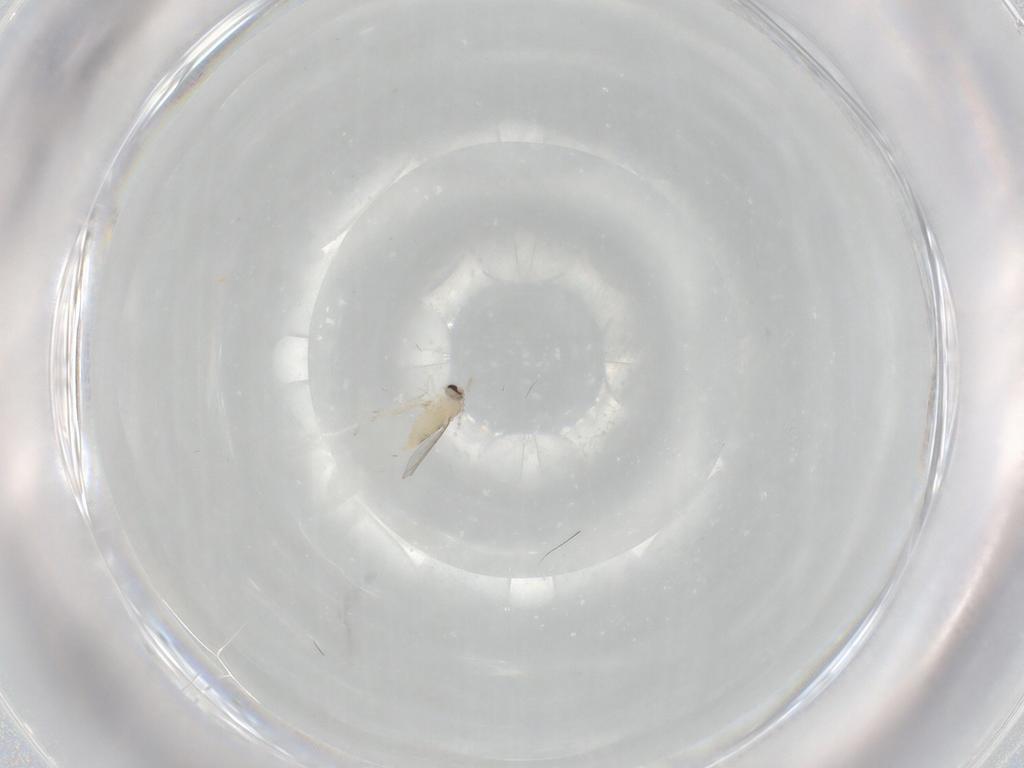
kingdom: Animalia
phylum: Arthropoda
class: Insecta
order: Diptera
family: Cecidomyiidae
